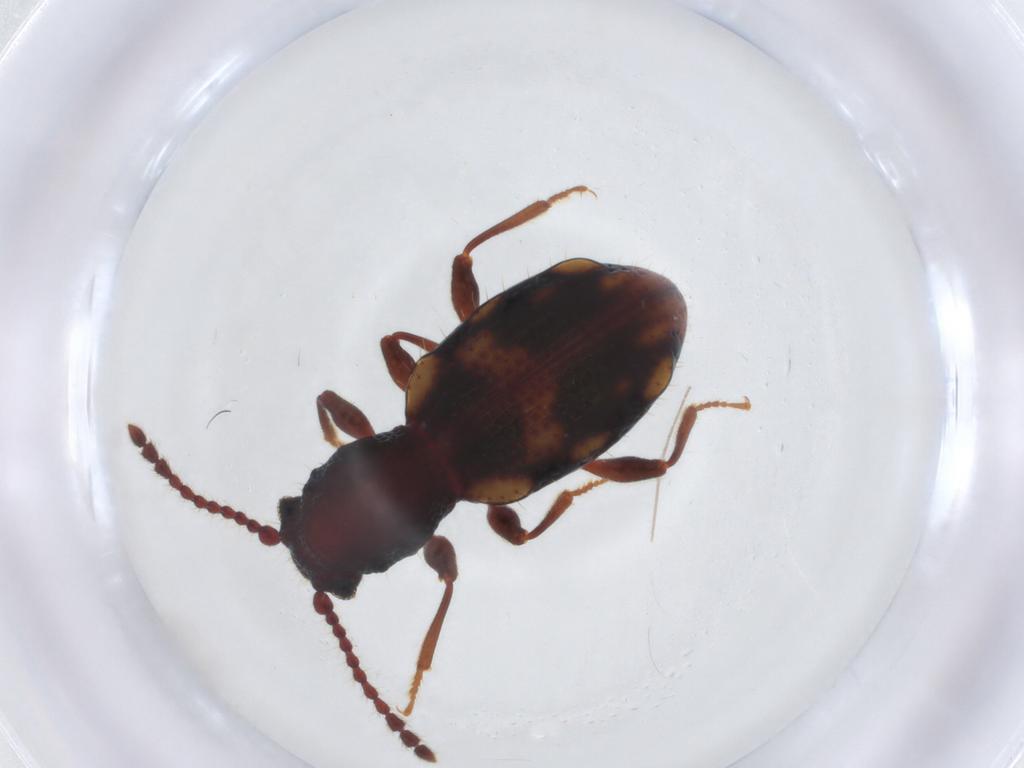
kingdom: Animalia
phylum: Arthropoda
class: Insecta
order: Coleoptera
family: Ptinidae
